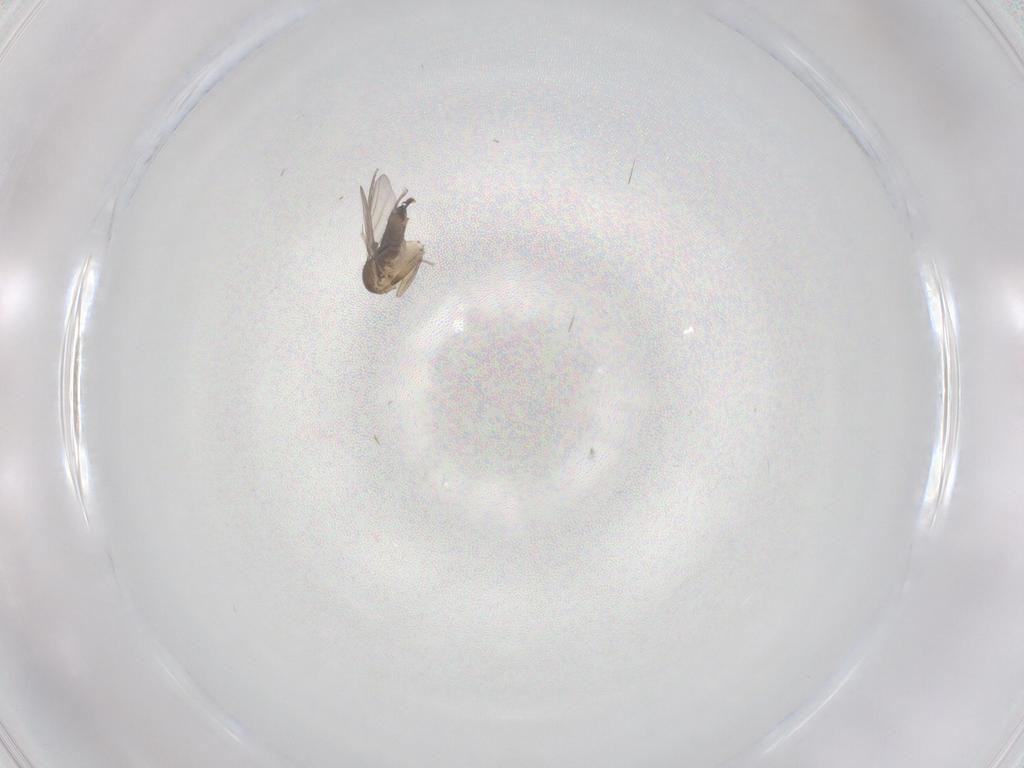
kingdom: Animalia
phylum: Arthropoda
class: Insecta
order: Diptera
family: Phoridae
